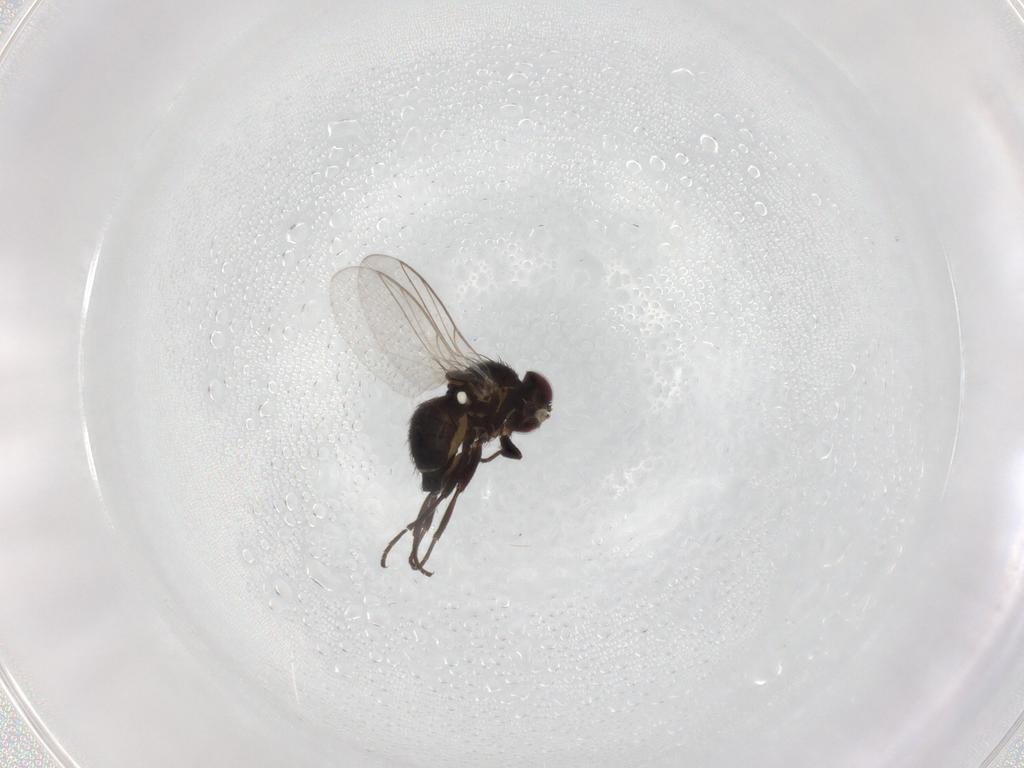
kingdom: Animalia
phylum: Arthropoda
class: Insecta
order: Diptera
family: Agromyzidae
